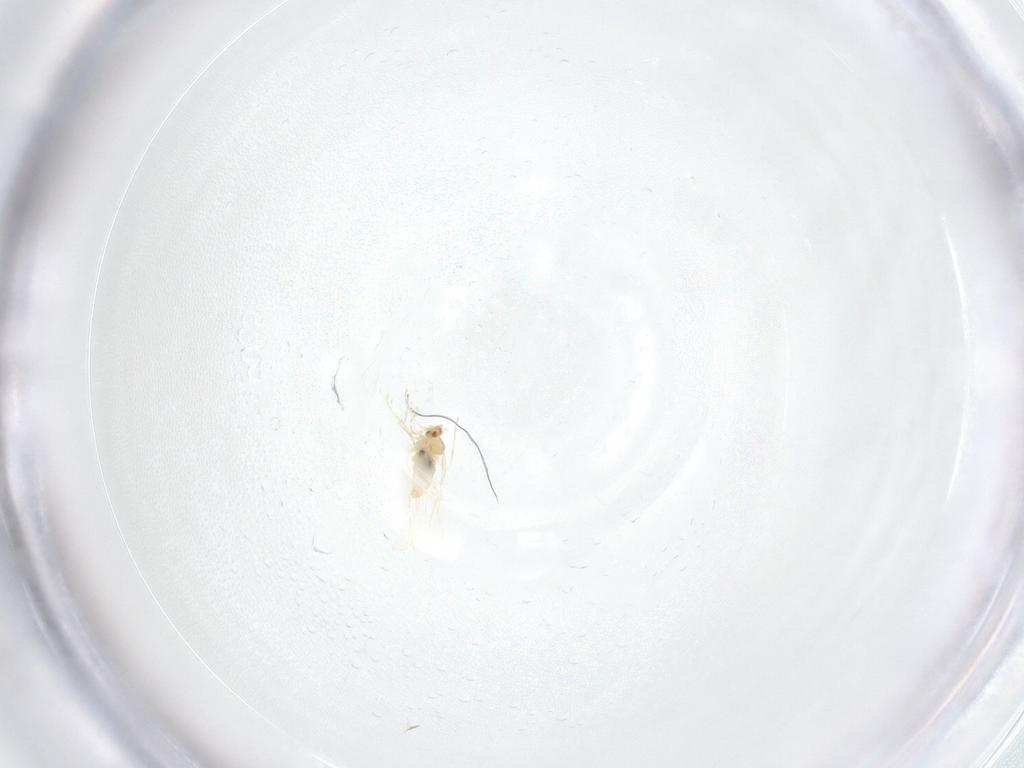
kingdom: Animalia
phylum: Arthropoda
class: Insecta
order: Diptera
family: Cecidomyiidae
